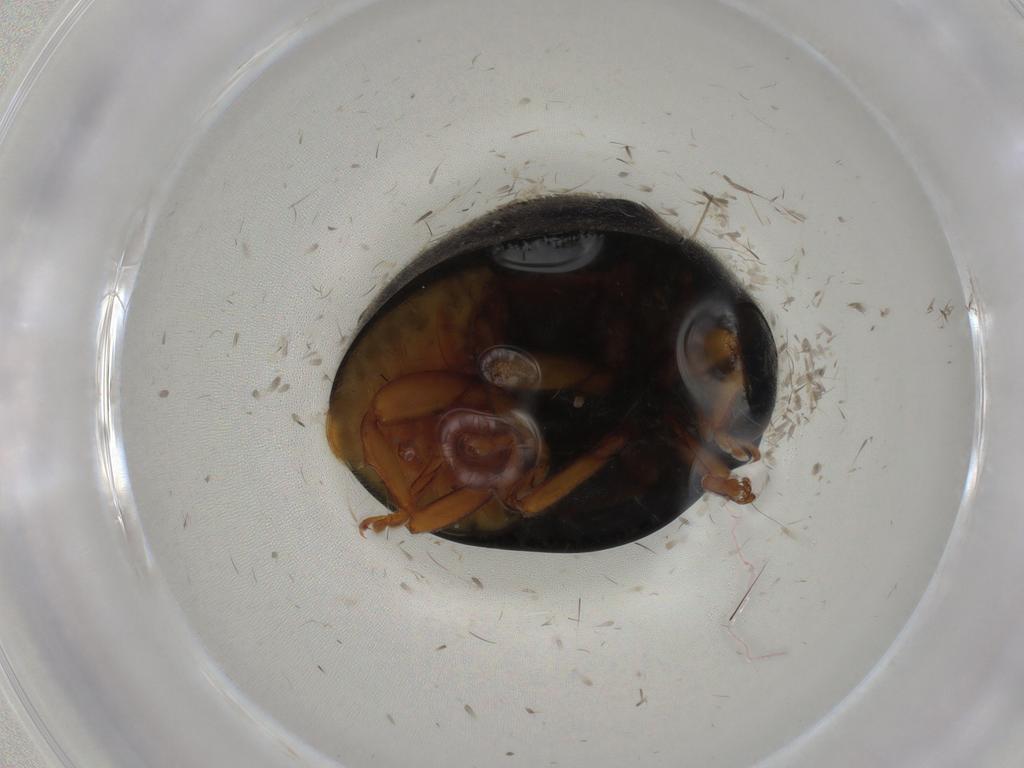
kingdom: Animalia
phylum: Arthropoda
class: Insecta
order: Coleoptera
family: Coccinellidae
